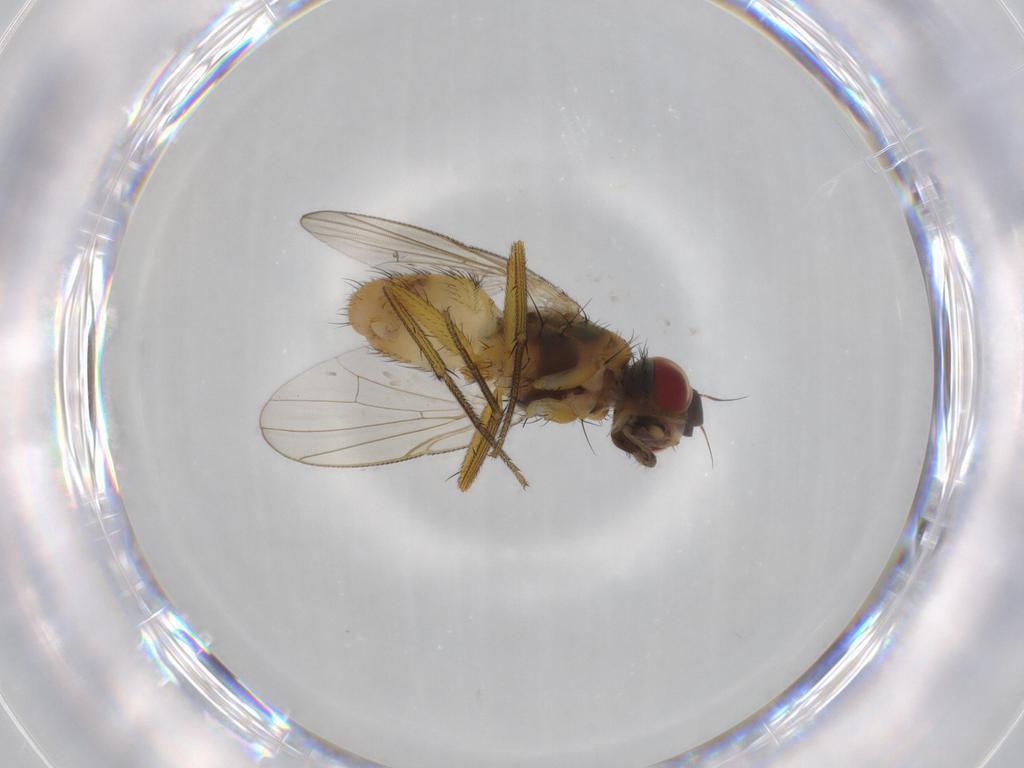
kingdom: Animalia
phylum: Arthropoda
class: Insecta
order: Diptera
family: Muscidae
